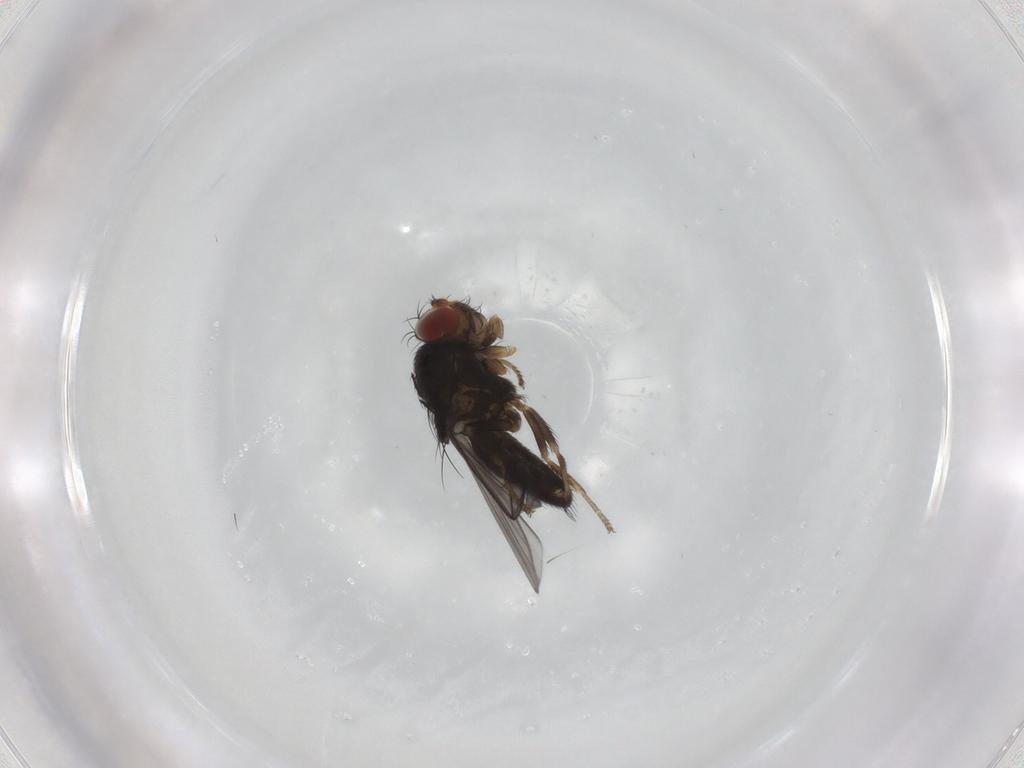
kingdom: Animalia
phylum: Arthropoda
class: Insecta
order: Diptera
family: Ephydridae
